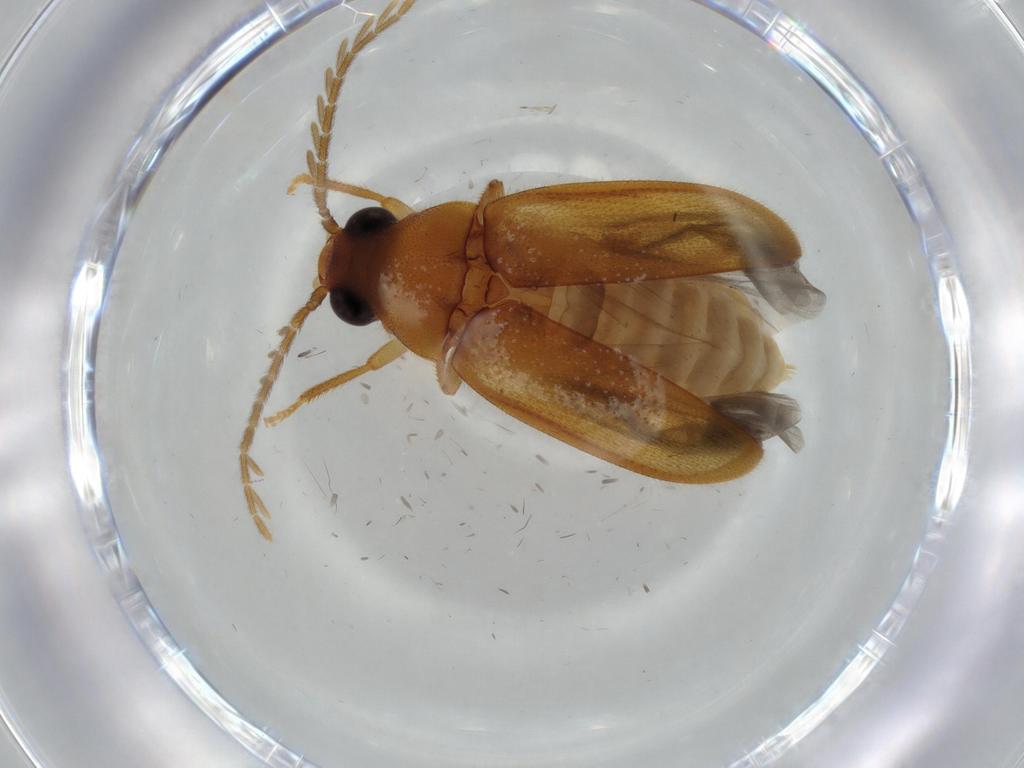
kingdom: Animalia
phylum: Arthropoda
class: Insecta
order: Coleoptera
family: Ptilodactylidae
